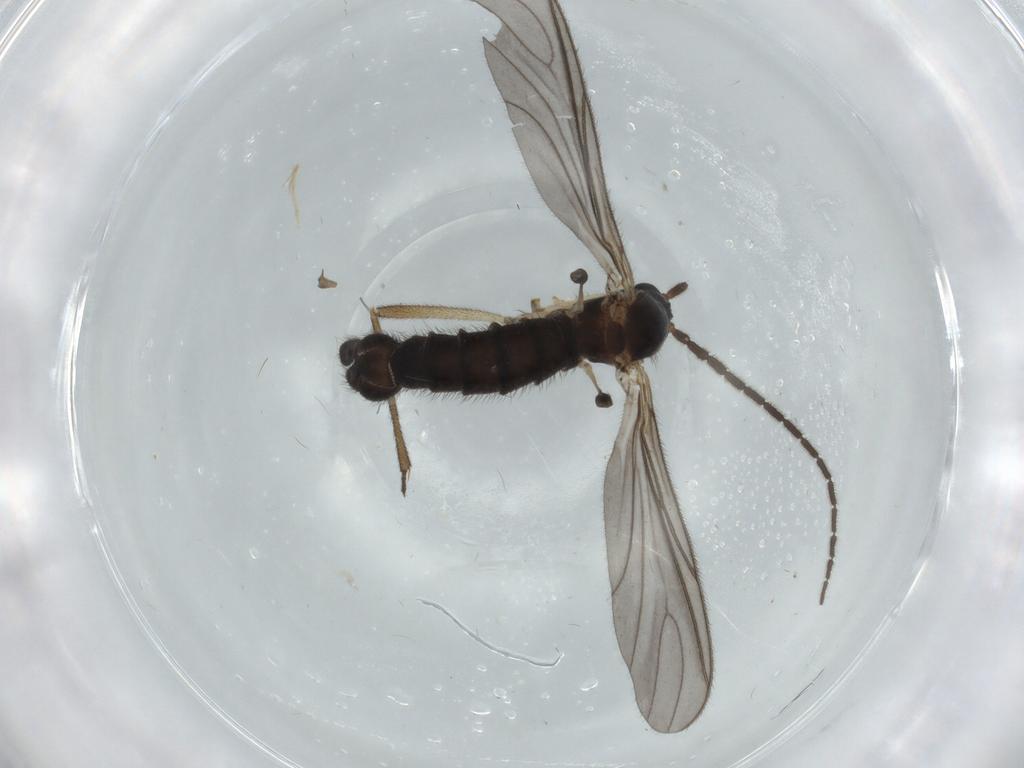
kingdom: Animalia
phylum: Arthropoda
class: Insecta
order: Diptera
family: Sciaridae
